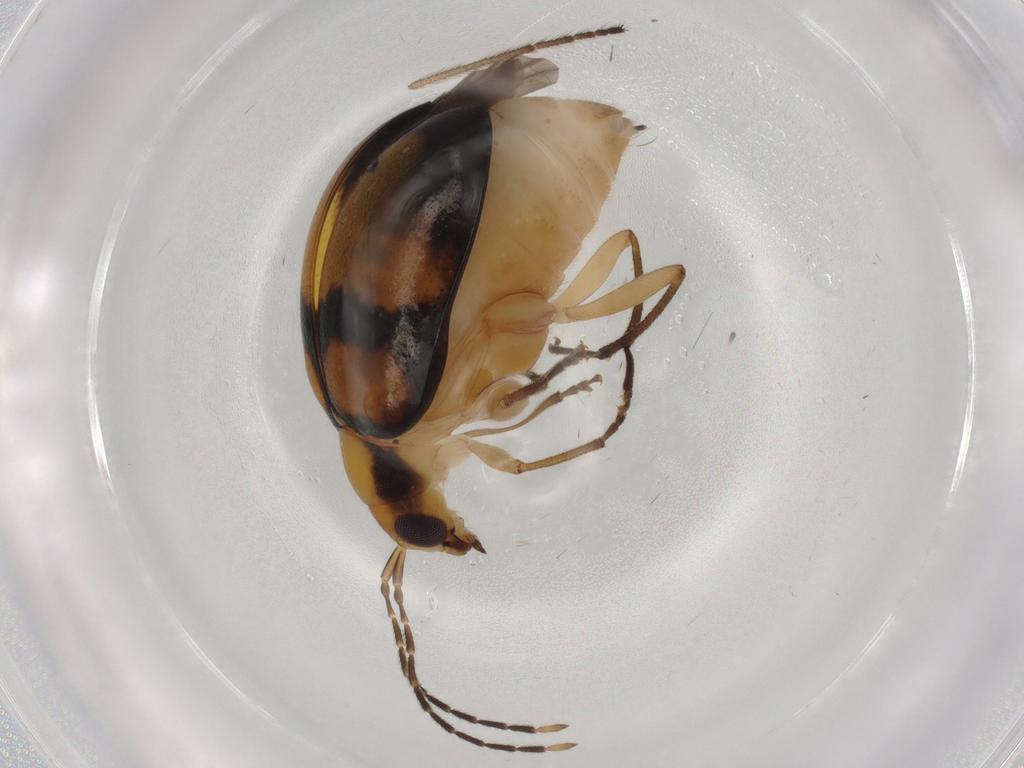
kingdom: Animalia
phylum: Arthropoda
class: Insecta
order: Coleoptera
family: Chrysomelidae
